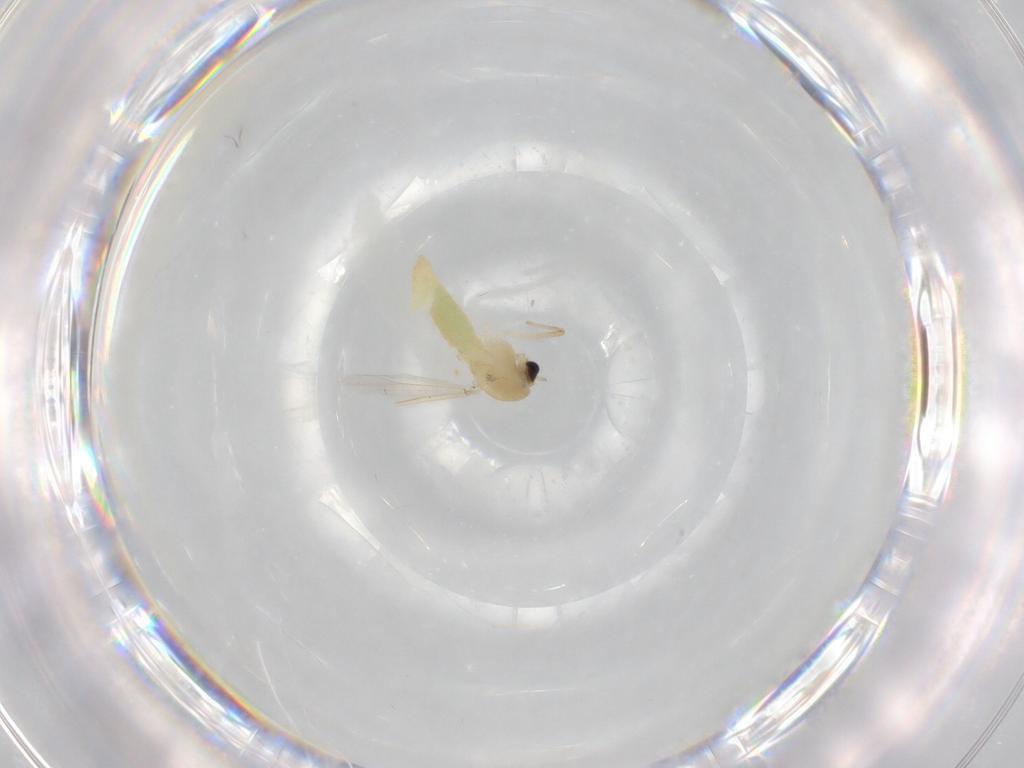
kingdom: Animalia
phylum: Arthropoda
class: Insecta
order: Diptera
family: Chironomidae
